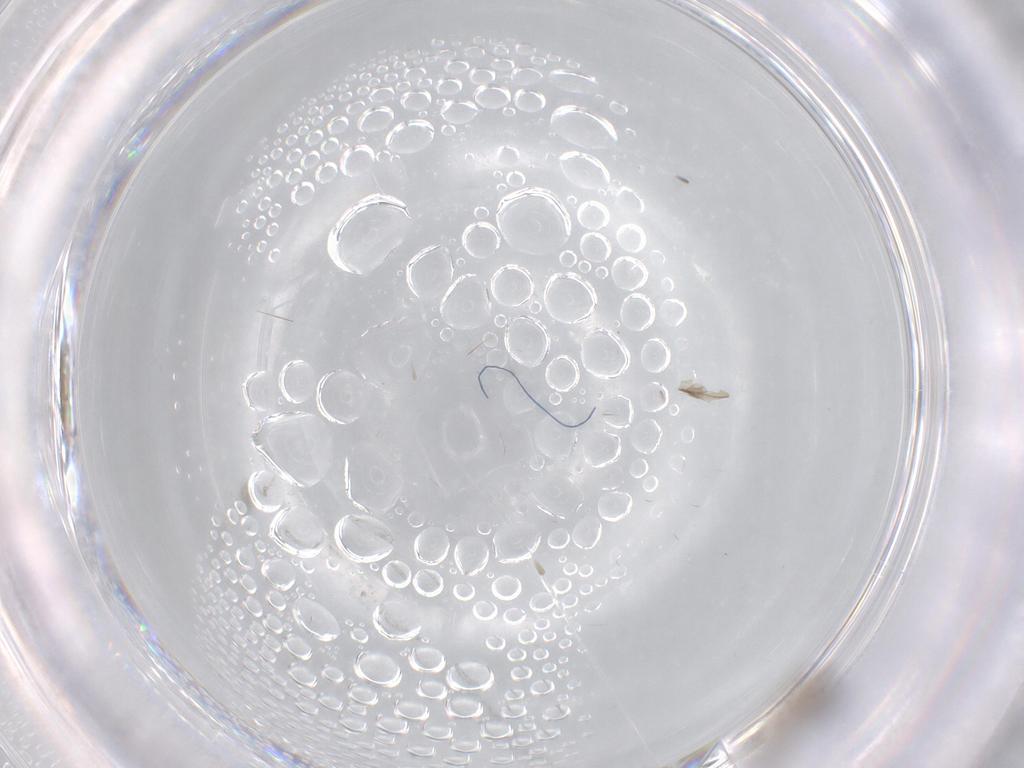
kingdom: Animalia
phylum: Arthropoda
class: Insecta
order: Diptera
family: Cecidomyiidae
